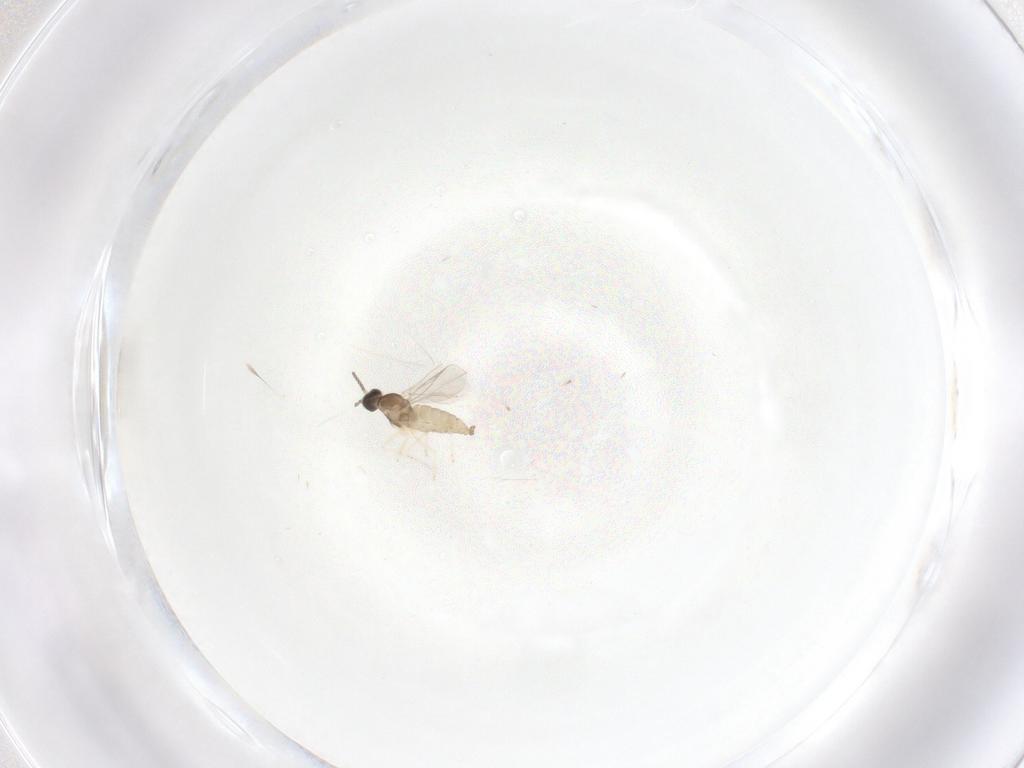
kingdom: Animalia
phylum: Arthropoda
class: Insecta
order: Diptera
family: Cecidomyiidae
